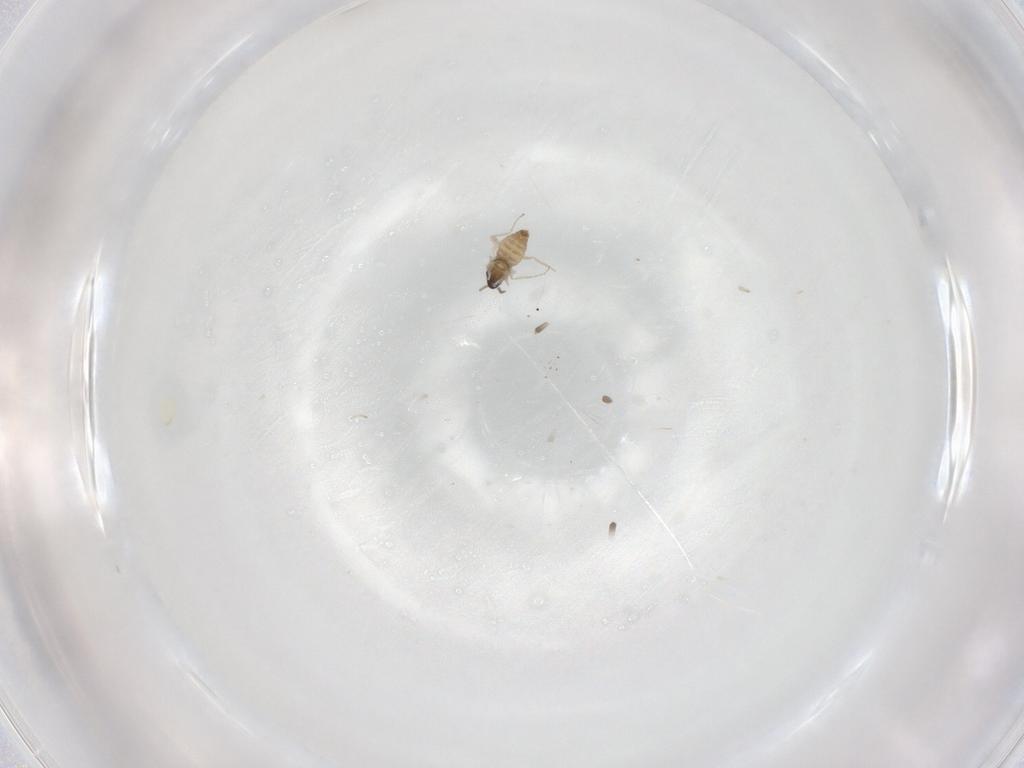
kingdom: Animalia
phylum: Arthropoda
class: Insecta
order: Diptera
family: Cecidomyiidae
